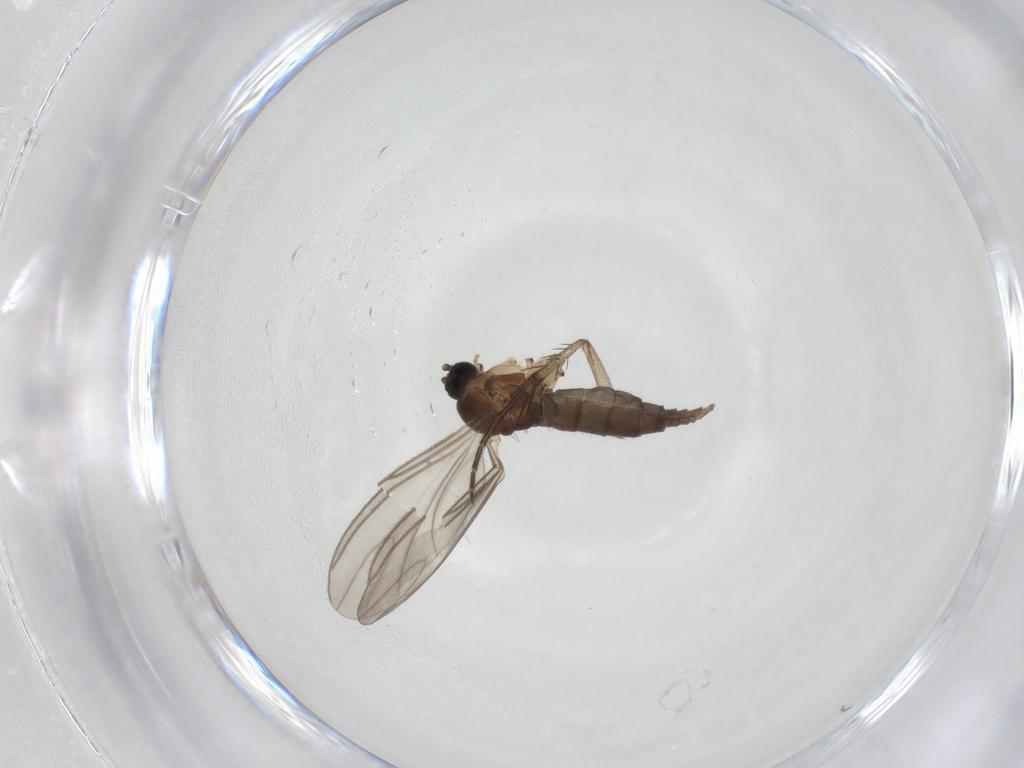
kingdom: Animalia
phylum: Arthropoda
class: Insecta
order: Diptera
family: Sciaridae
